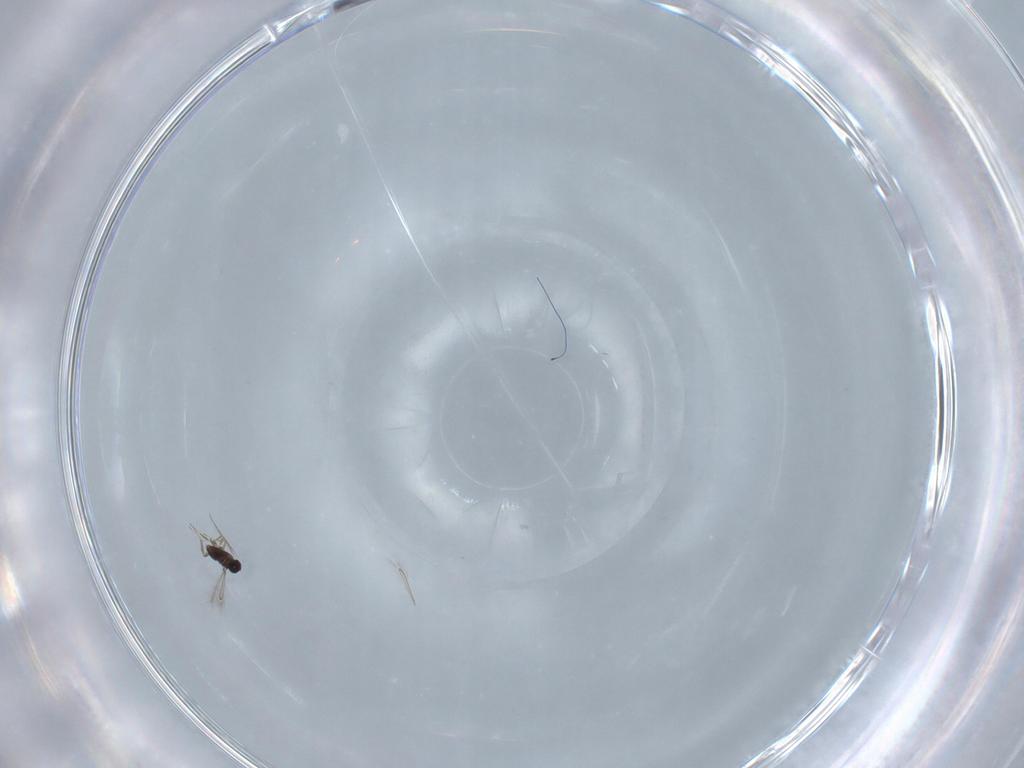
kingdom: Animalia
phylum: Arthropoda
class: Insecta
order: Hymenoptera
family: Mymaridae
